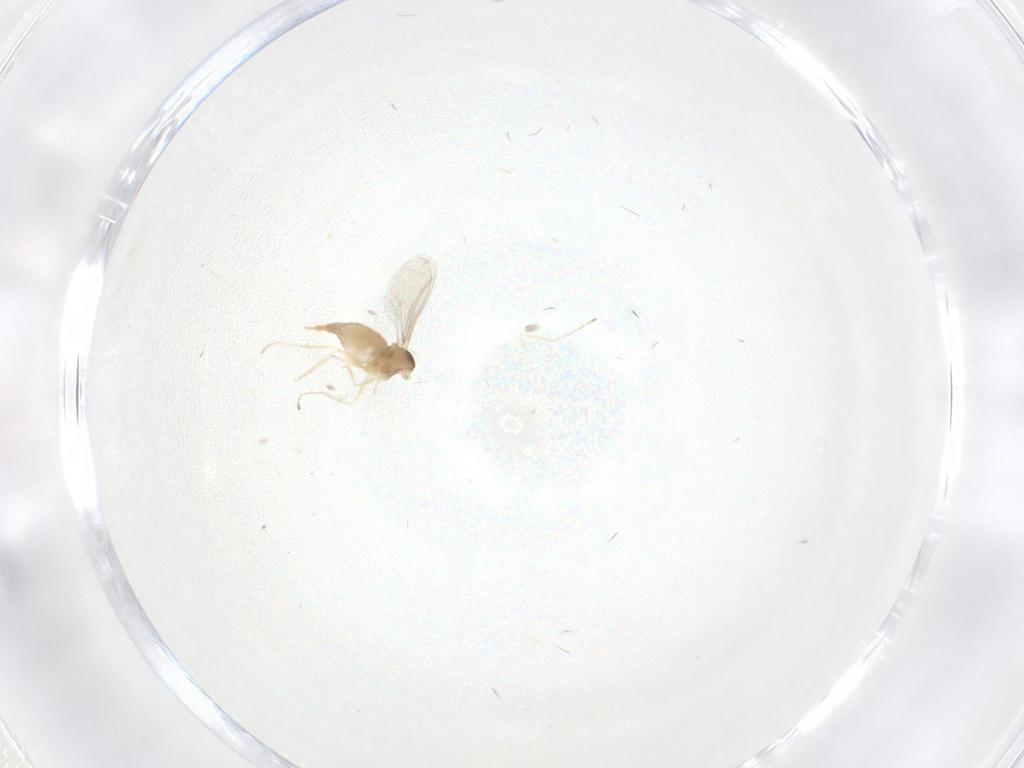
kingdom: Animalia
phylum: Arthropoda
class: Insecta
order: Diptera
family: Cecidomyiidae
